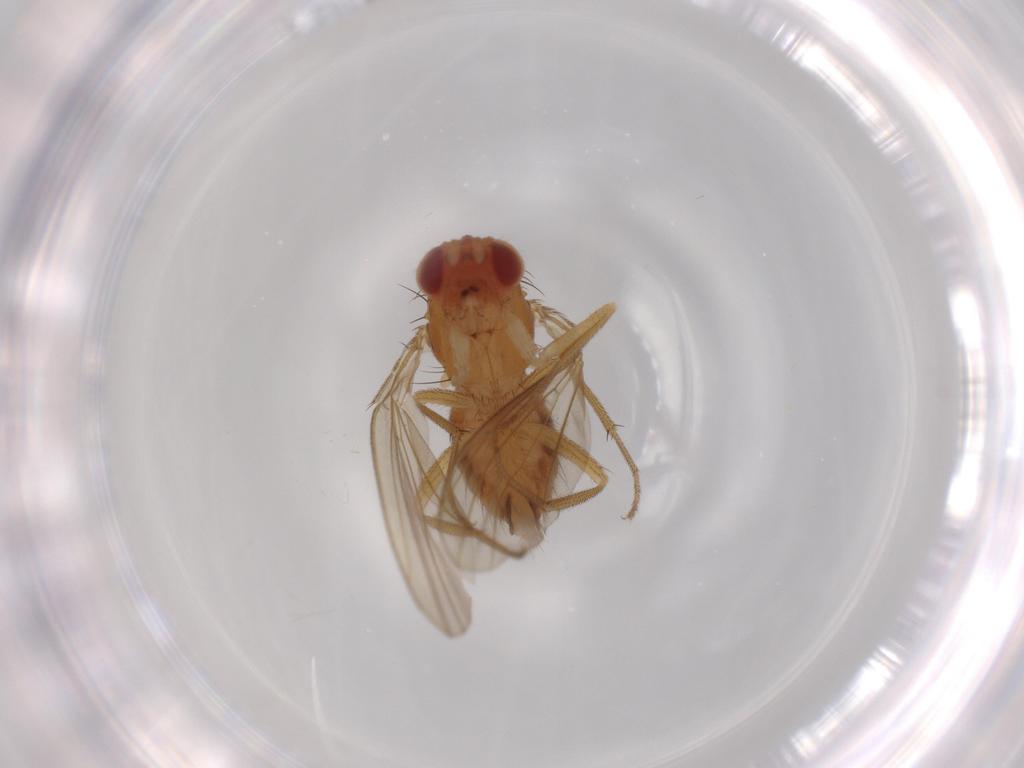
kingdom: Animalia
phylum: Arthropoda
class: Insecta
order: Diptera
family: Drosophilidae
